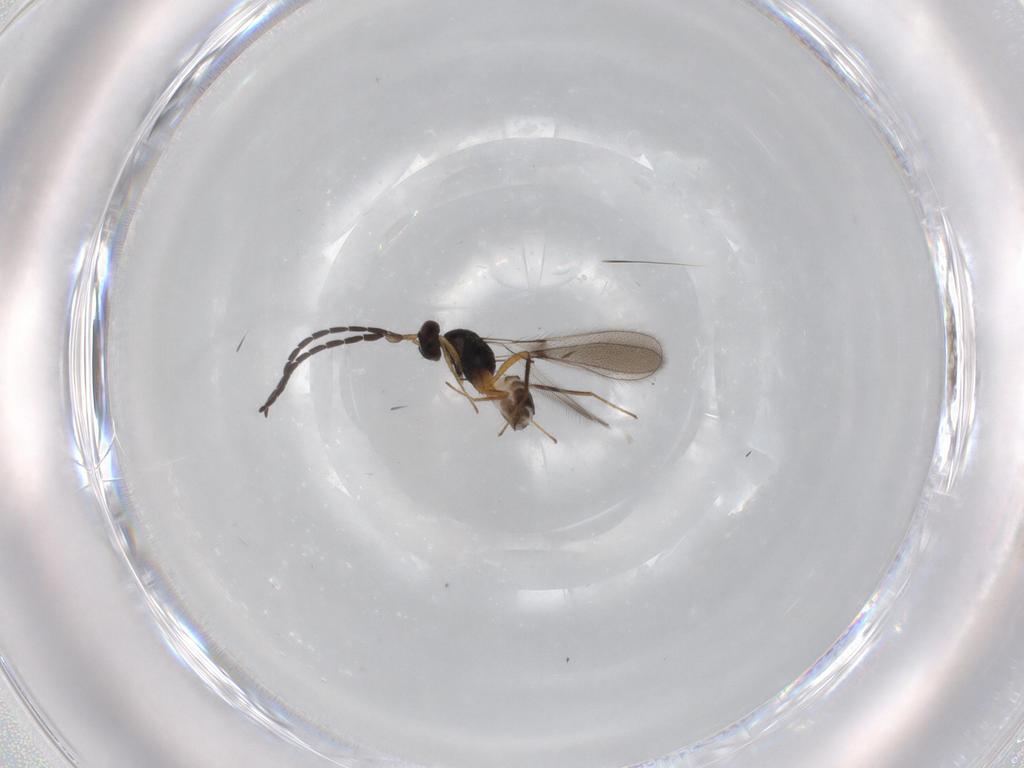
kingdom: Animalia
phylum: Arthropoda
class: Insecta
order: Hymenoptera
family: Mymaridae
